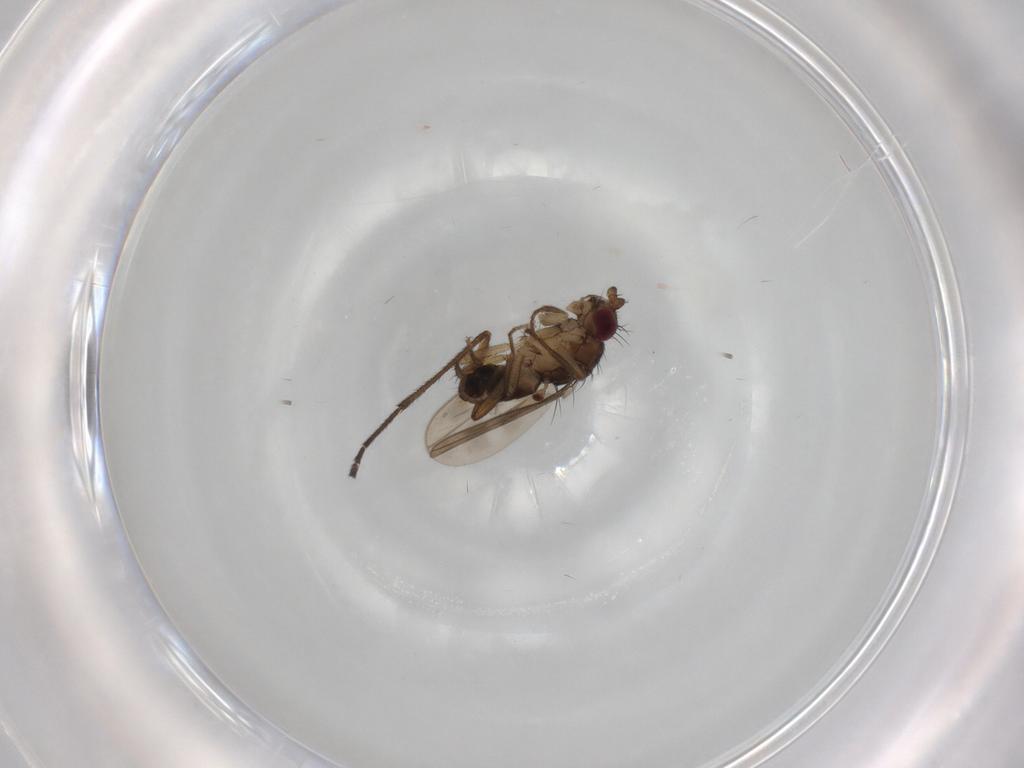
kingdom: Animalia
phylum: Arthropoda
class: Insecta
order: Diptera
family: Sphaeroceridae
